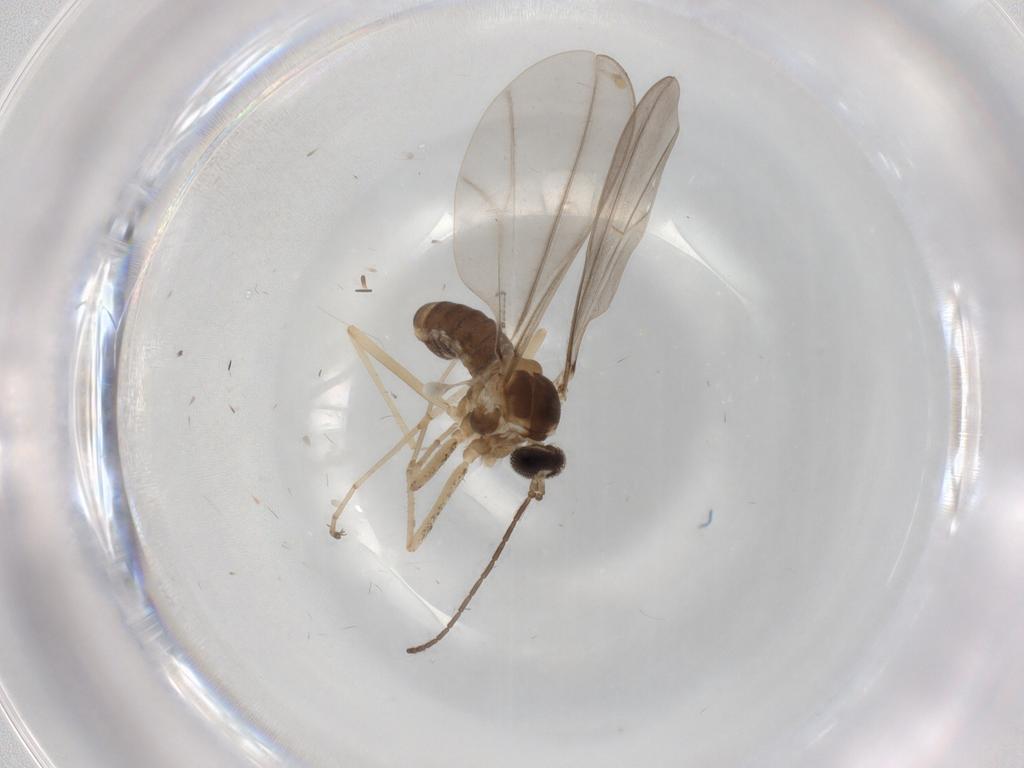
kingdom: Animalia
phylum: Arthropoda
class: Insecta
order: Diptera
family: Cecidomyiidae
